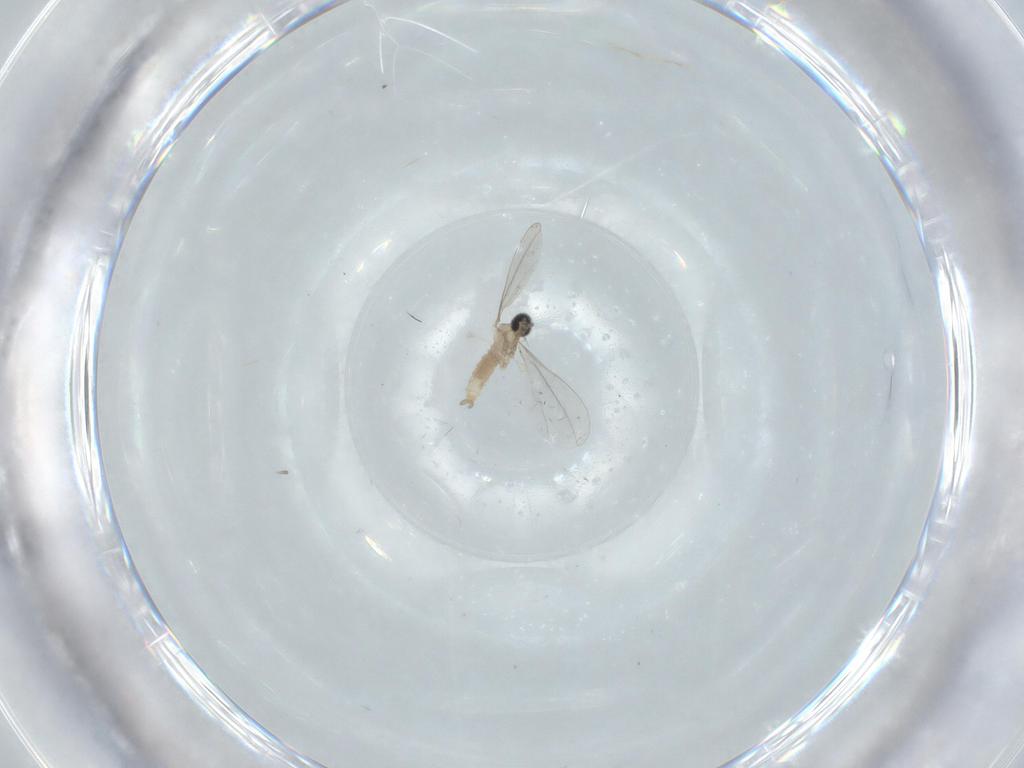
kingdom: Animalia
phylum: Arthropoda
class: Insecta
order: Diptera
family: Cecidomyiidae
